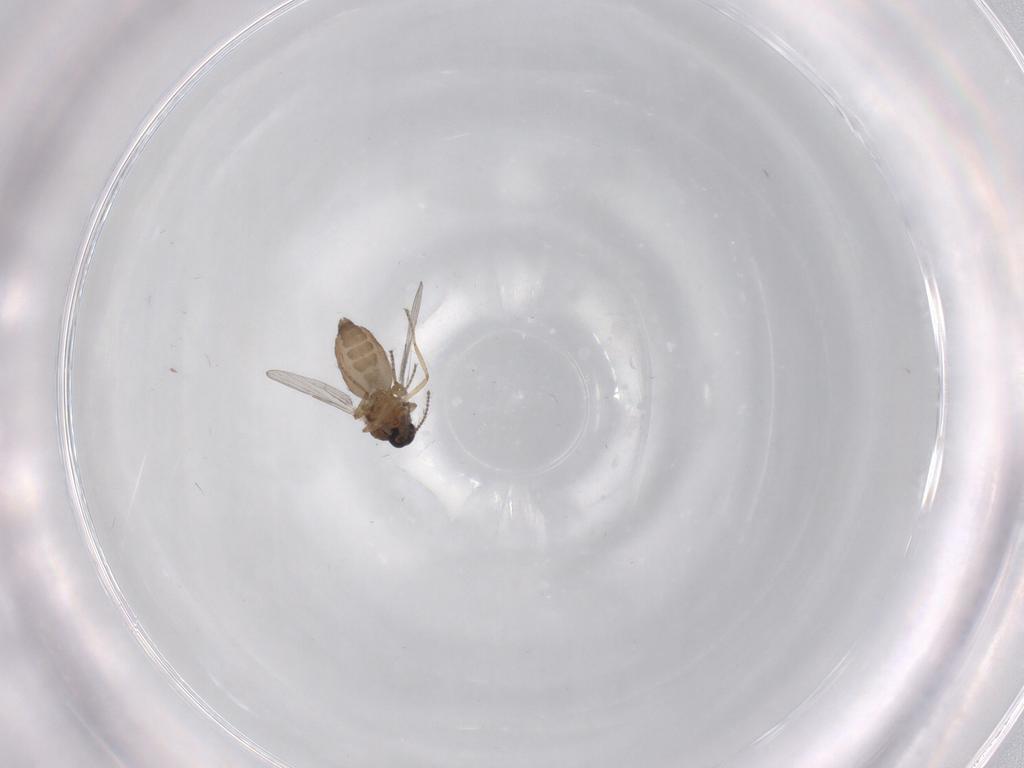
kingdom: Animalia
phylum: Arthropoda
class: Insecta
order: Diptera
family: Ceratopogonidae
